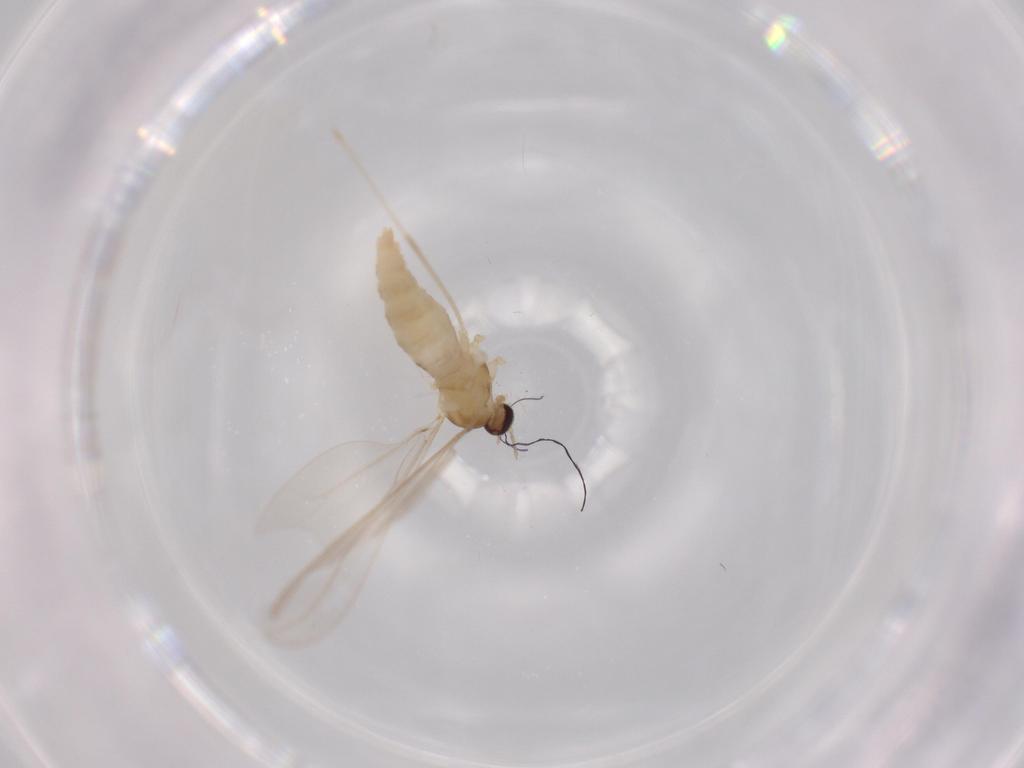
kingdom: Animalia
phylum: Arthropoda
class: Insecta
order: Diptera
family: Cecidomyiidae
